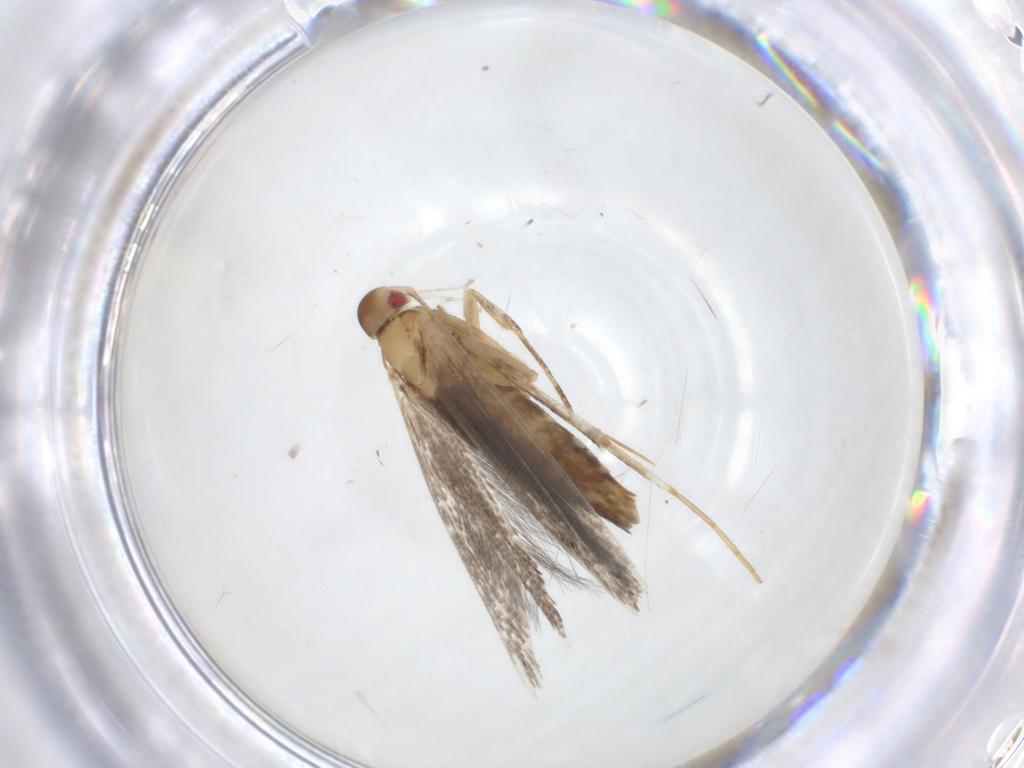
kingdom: Animalia
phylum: Arthropoda
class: Insecta
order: Lepidoptera
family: Cosmopterigidae
